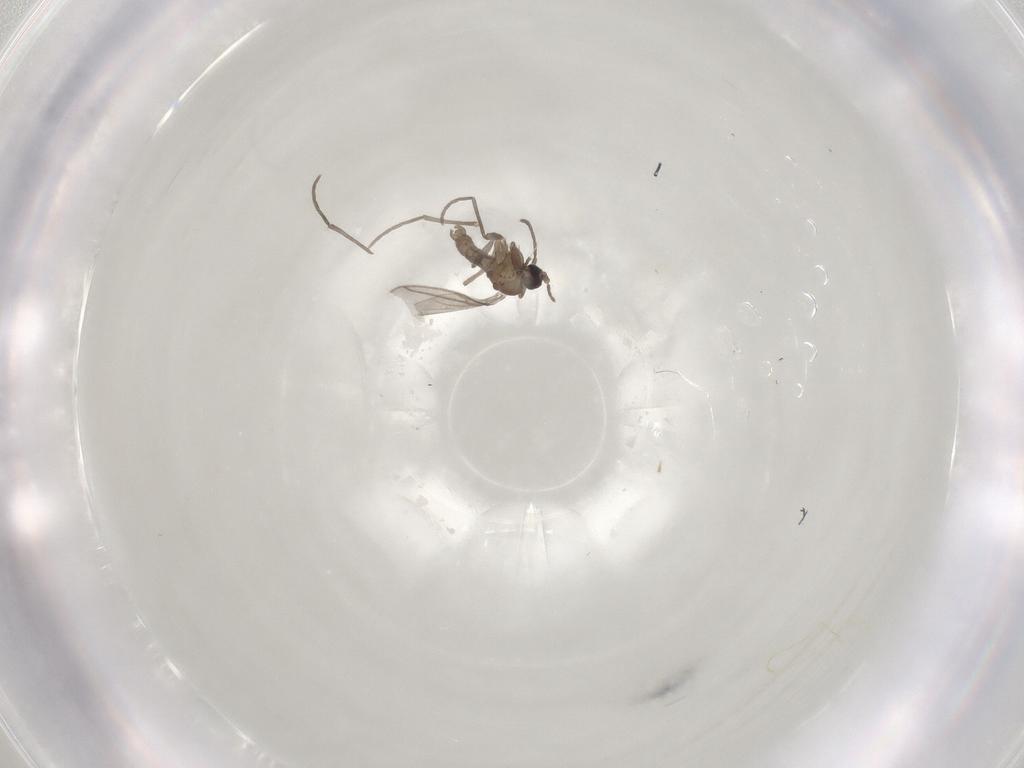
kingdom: Animalia
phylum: Arthropoda
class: Insecta
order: Diptera
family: Sciaridae
